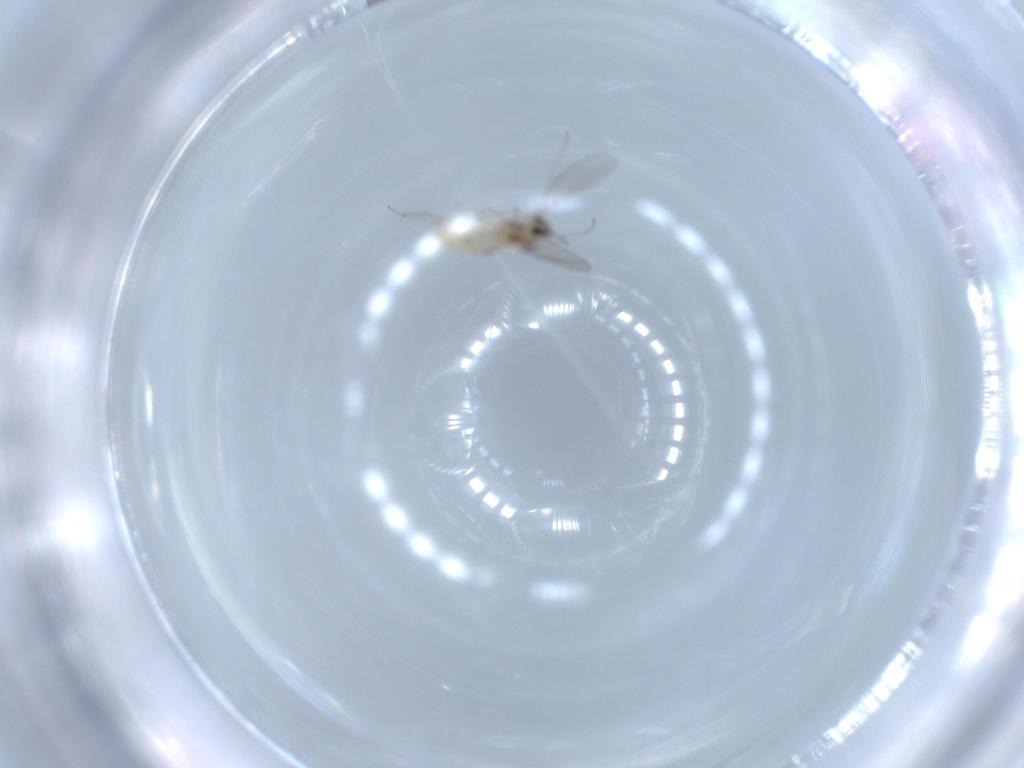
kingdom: Animalia
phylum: Arthropoda
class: Insecta
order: Diptera
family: Cecidomyiidae
